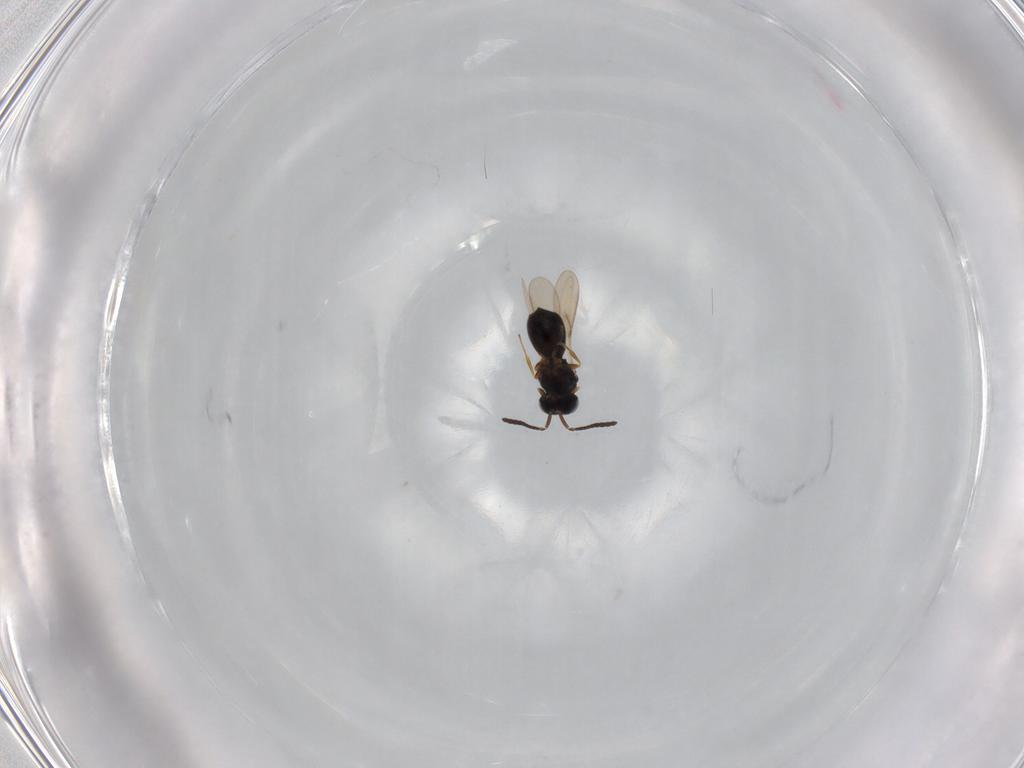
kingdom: Animalia
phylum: Arthropoda
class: Insecta
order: Hymenoptera
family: Scelionidae
